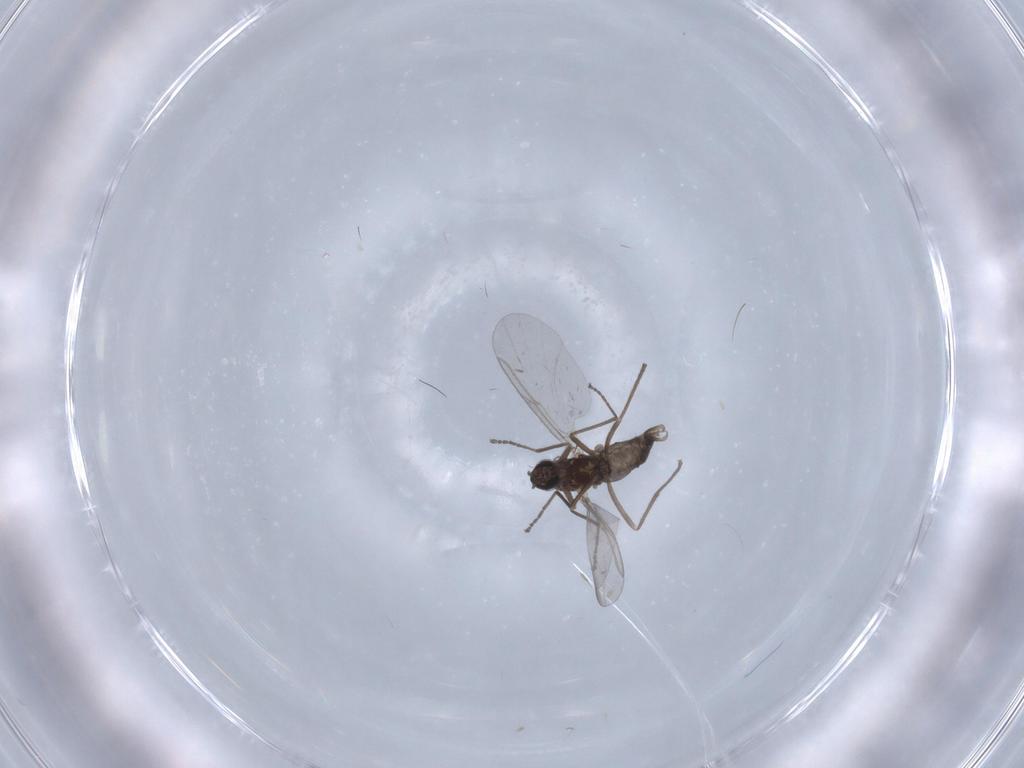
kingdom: Animalia
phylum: Arthropoda
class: Insecta
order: Diptera
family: Cecidomyiidae
